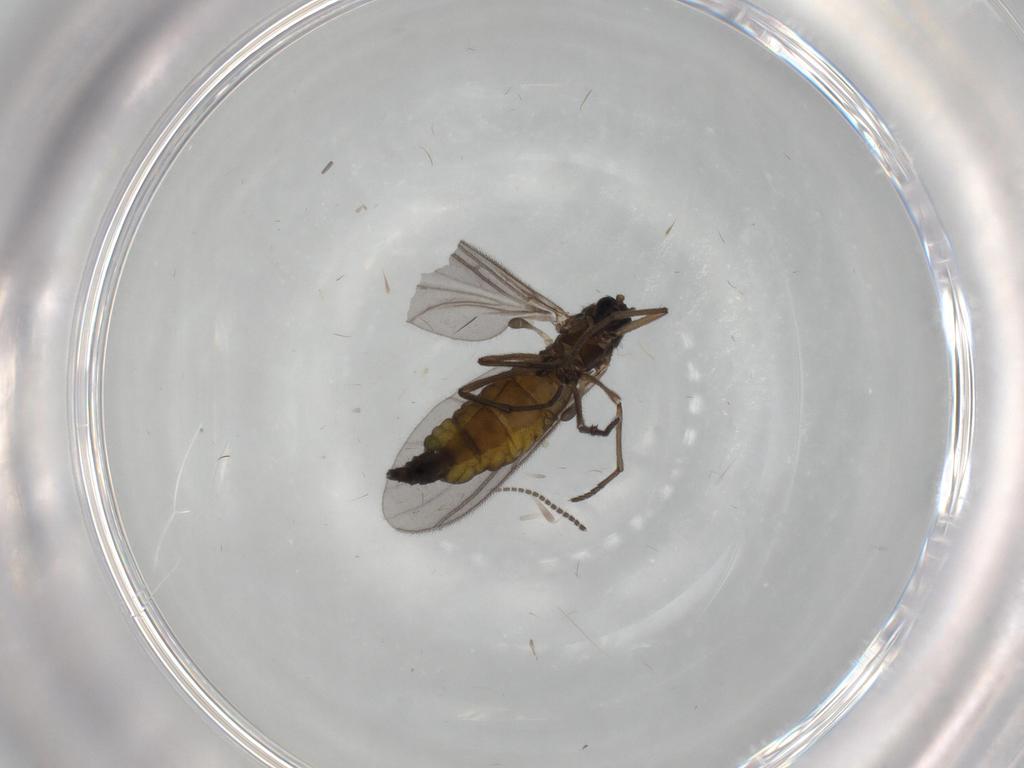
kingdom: Animalia
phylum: Arthropoda
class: Insecta
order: Diptera
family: Sciaridae
